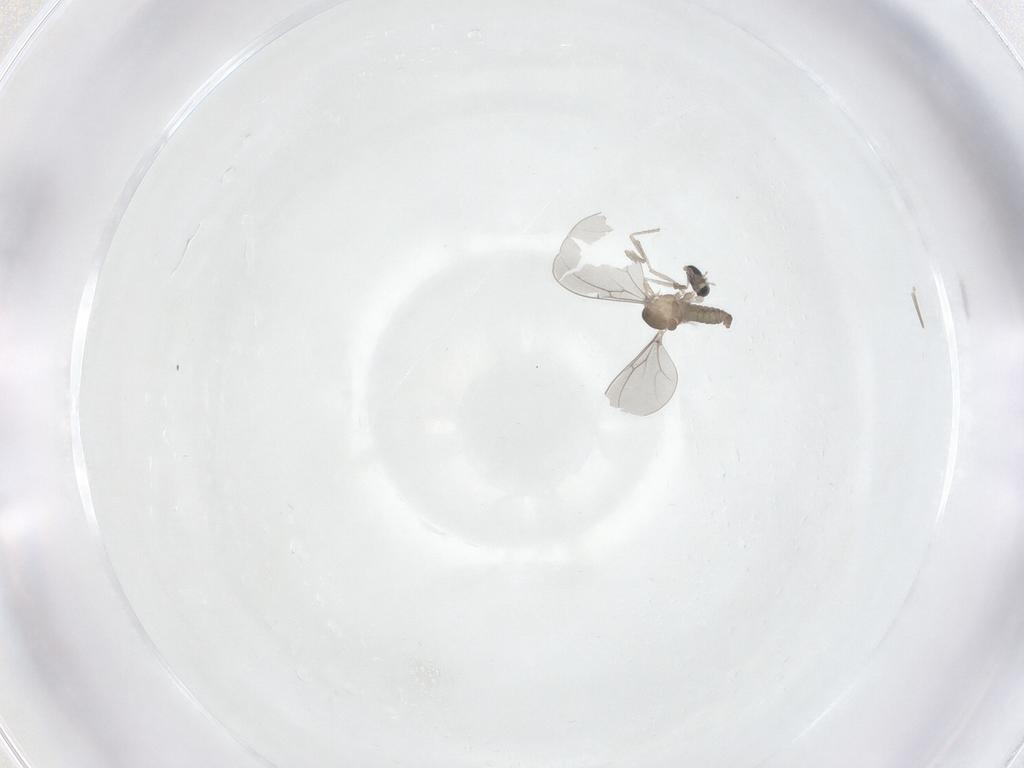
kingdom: Animalia
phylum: Arthropoda
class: Insecta
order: Diptera
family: Cecidomyiidae
